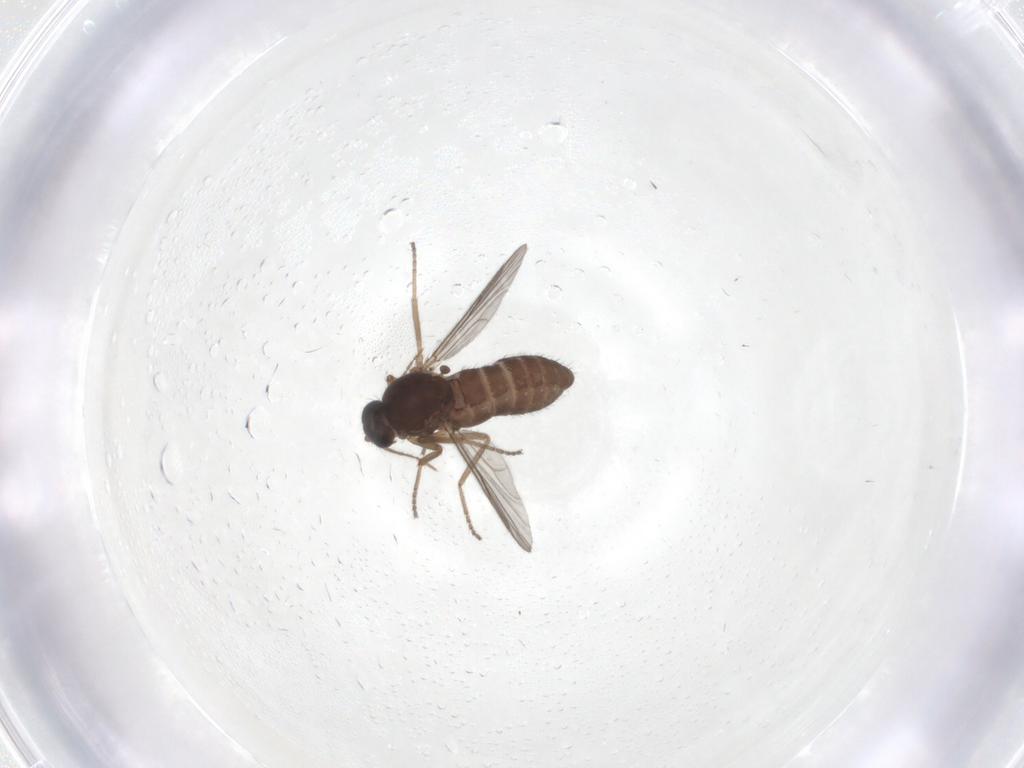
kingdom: Animalia
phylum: Arthropoda
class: Insecta
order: Diptera
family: Ceratopogonidae
